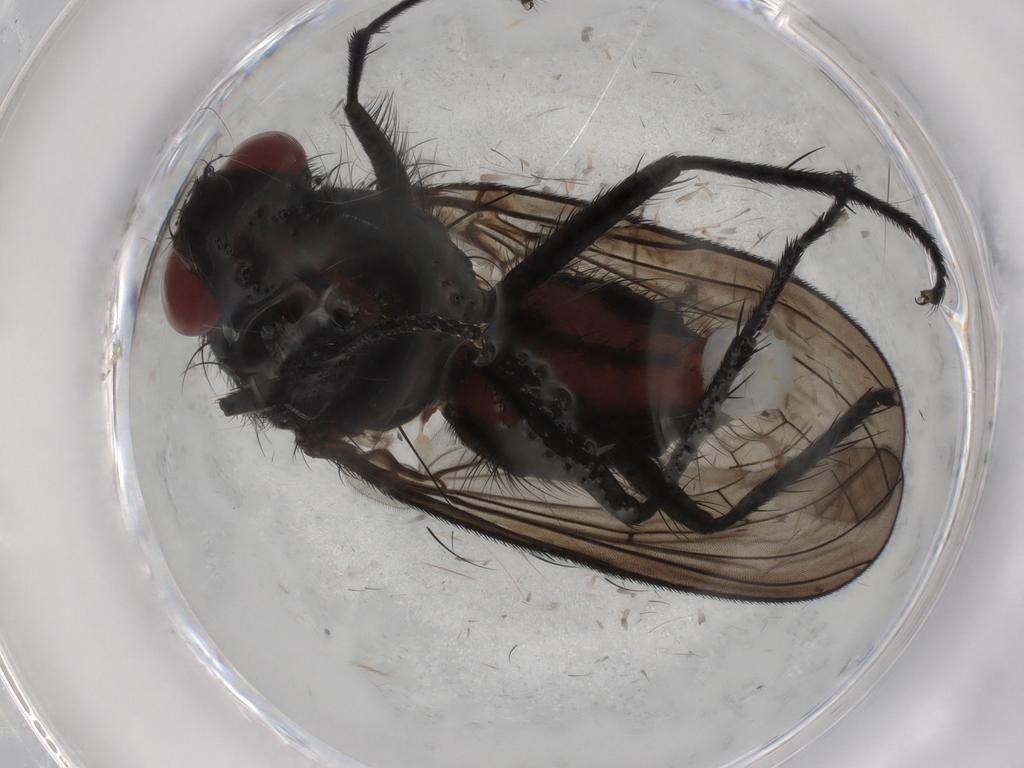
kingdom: Animalia
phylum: Arthropoda
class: Insecta
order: Diptera
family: Anthomyiidae
